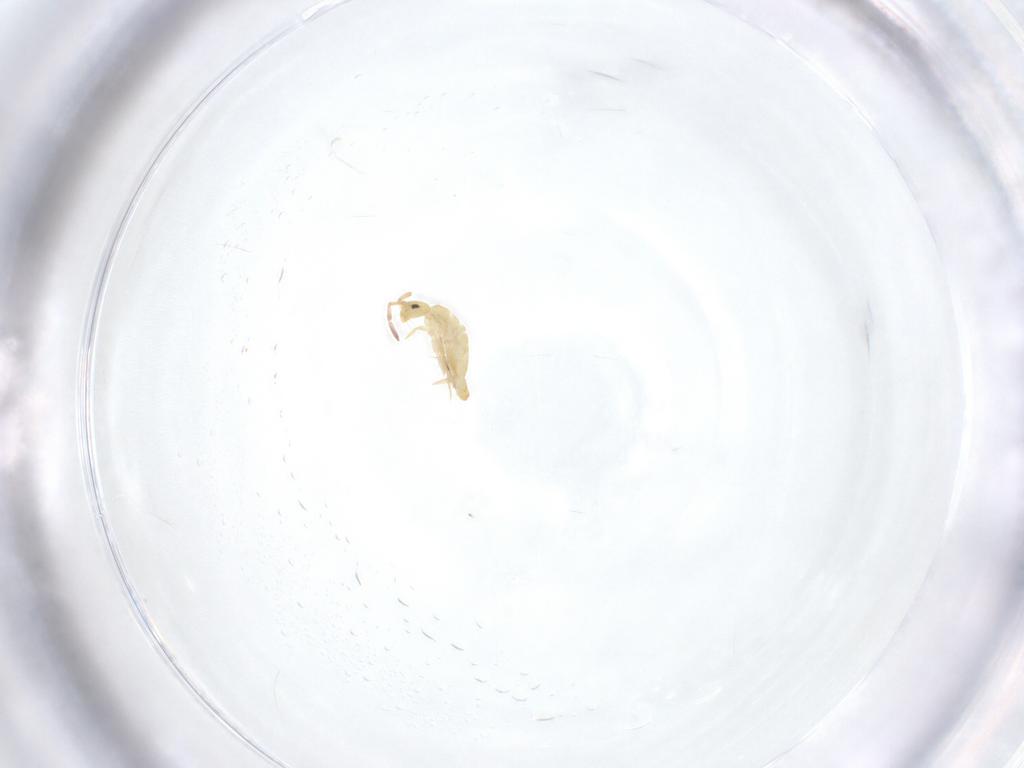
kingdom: Animalia
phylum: Arthropoda
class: Collembola
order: Entomobryomorpha
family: Entomobryidae
